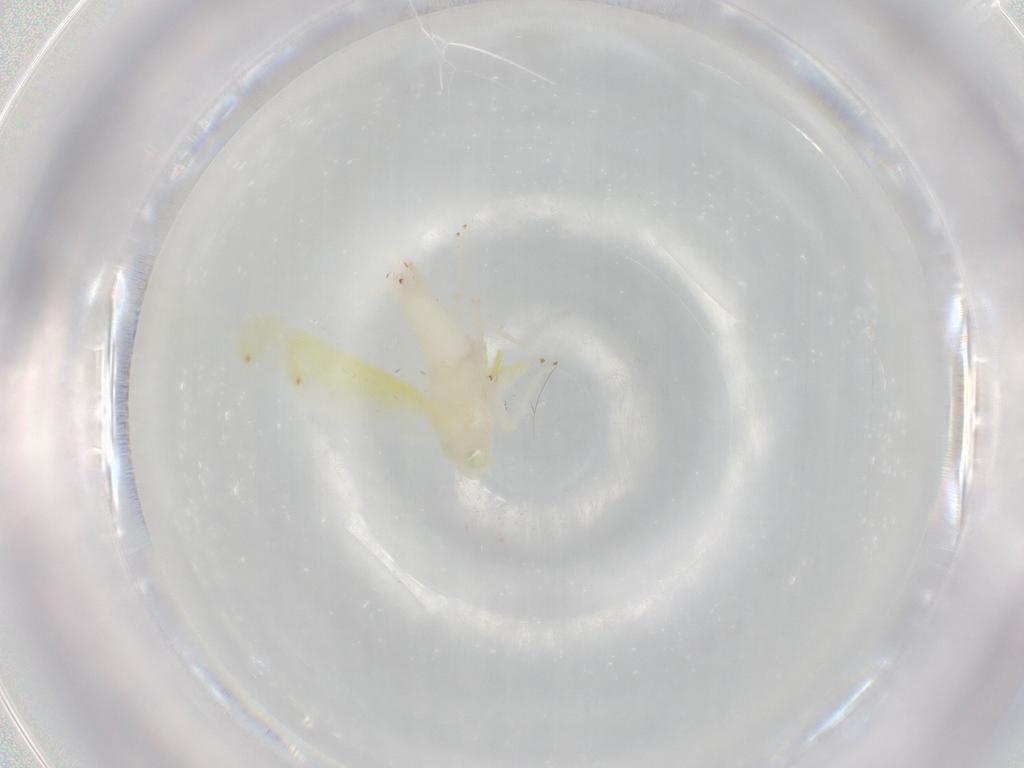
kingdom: Animalia
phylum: Arthropoda
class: Insecta
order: Hemiptera
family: Cicadellidae
